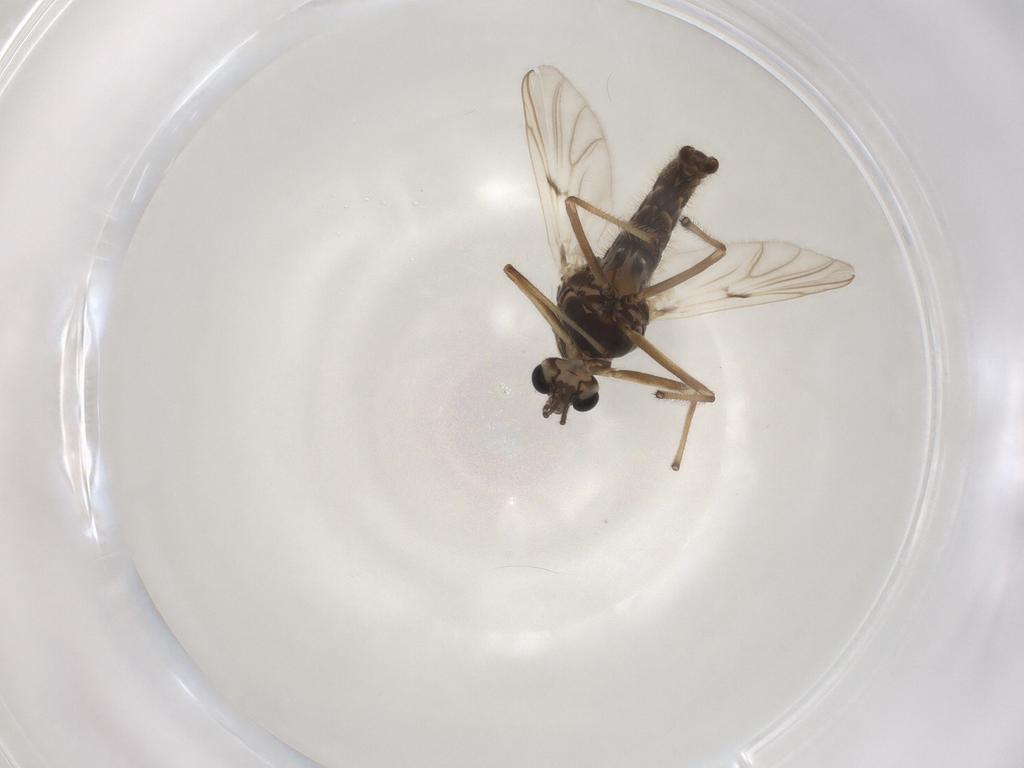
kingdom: Animalia
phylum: Arthropoda
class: Insecta
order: Diptera
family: Chironomidae
